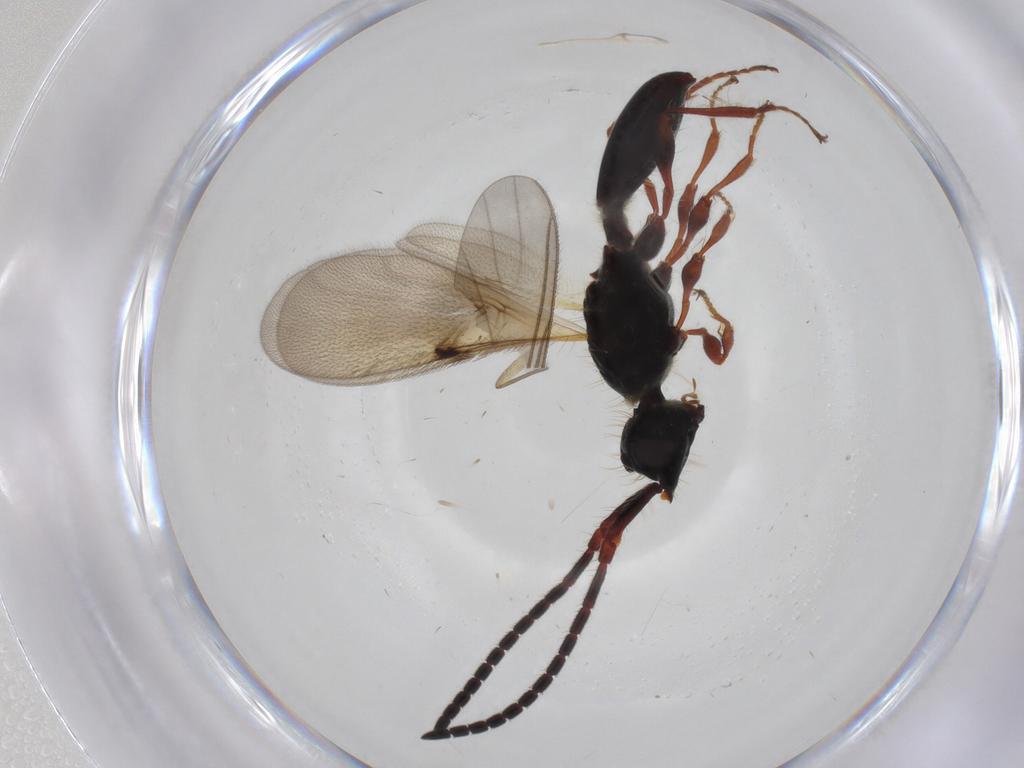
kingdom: Animalia
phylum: Arthropoda
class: Insecta
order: Hymenoptera
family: Diapriidae
